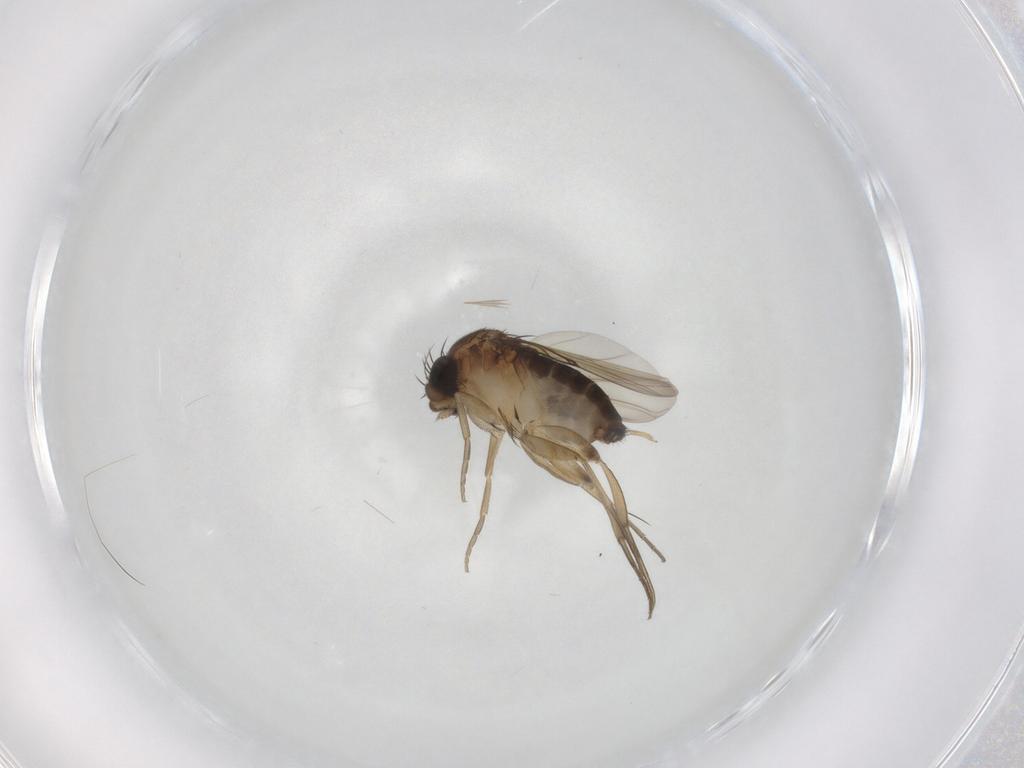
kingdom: Animalia
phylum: Arthropoda
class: Insecta
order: Diptera
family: Phoridae
